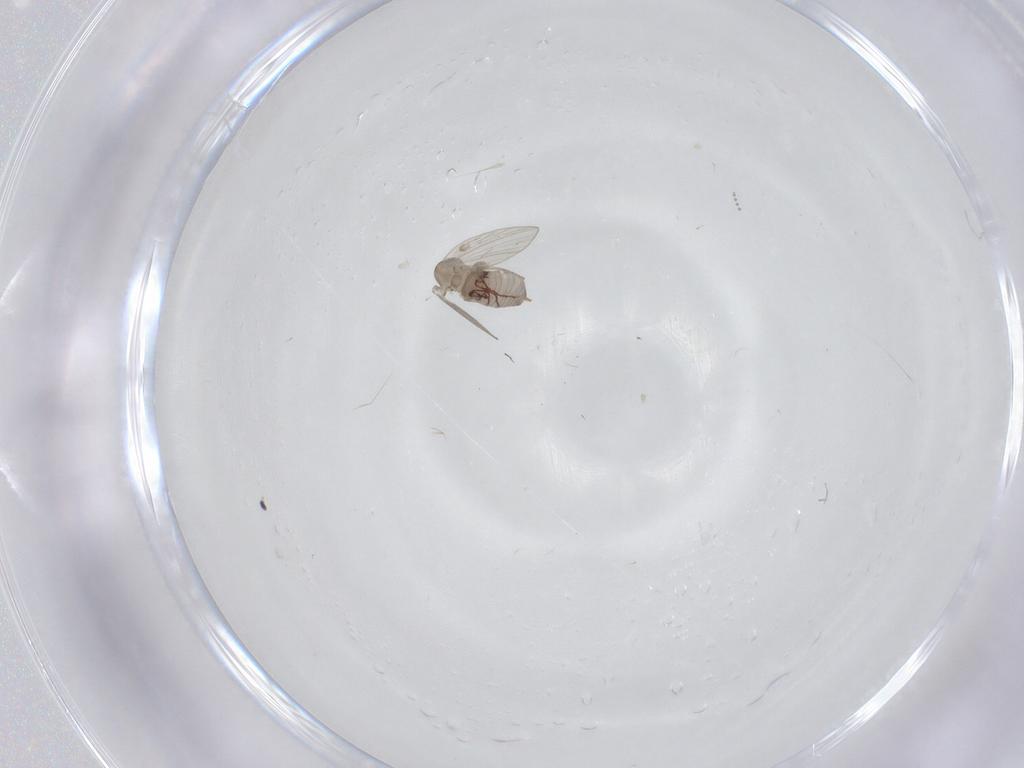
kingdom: Animalia
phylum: Arthropoda
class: Insecta
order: Diptera
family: Psychodidae
